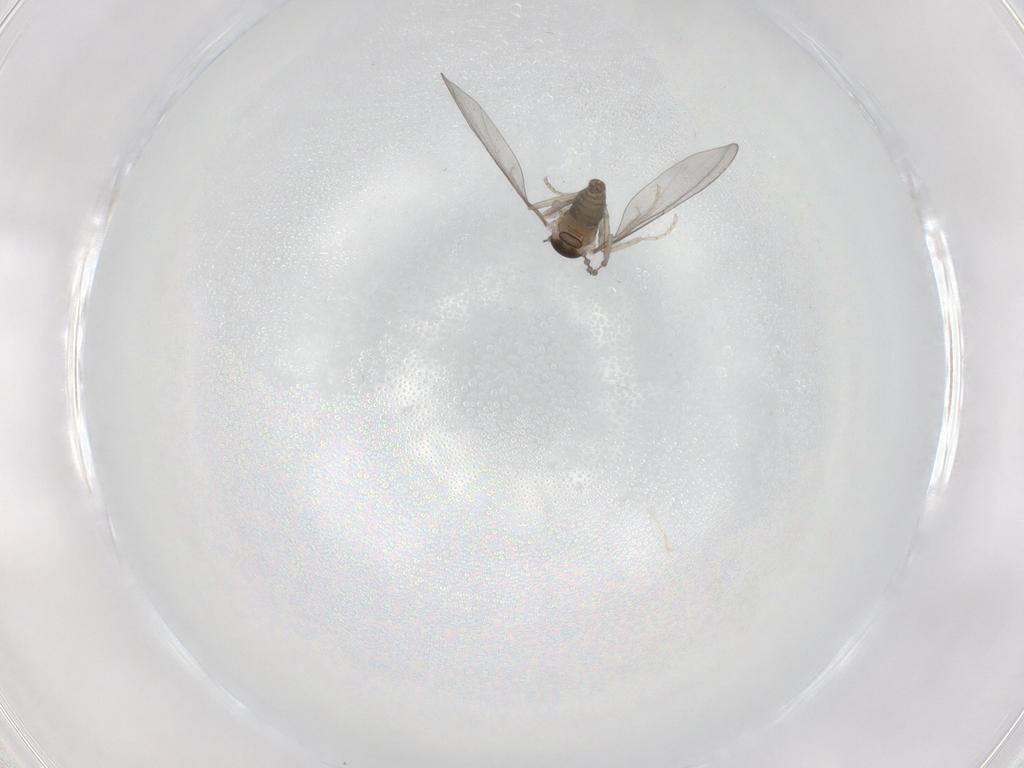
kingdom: Animalia
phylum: Arthropoda
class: Insecta
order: Diptera
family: Cecidomyiidae
